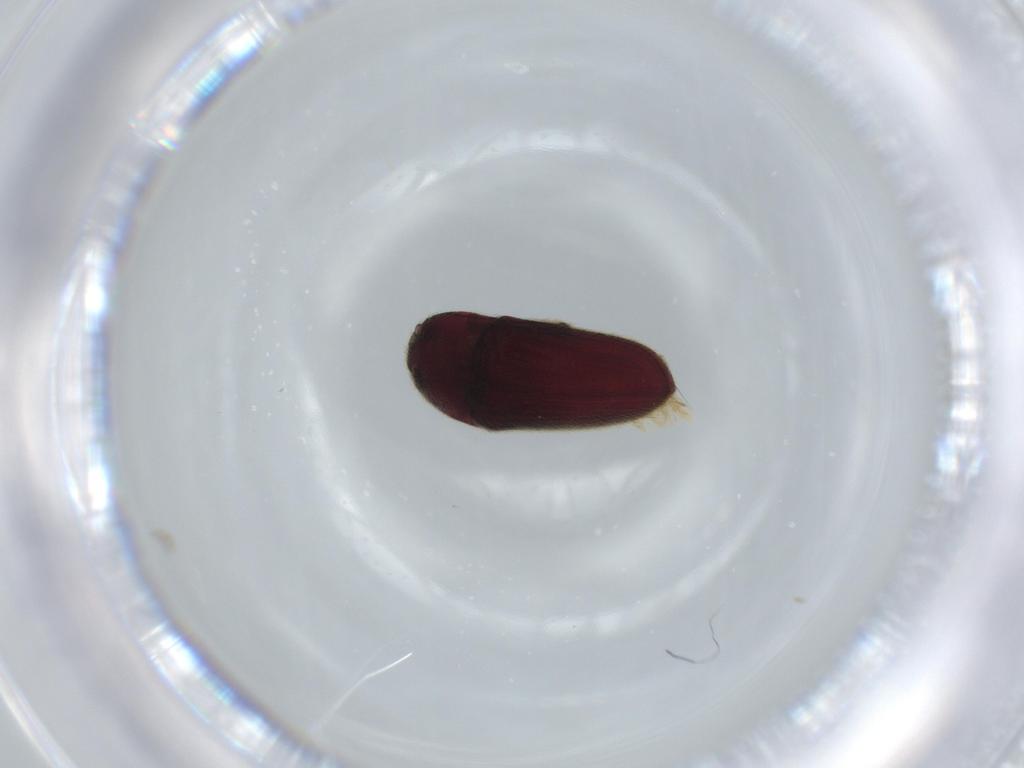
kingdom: Animalia
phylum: Arthropoda
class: Insecta
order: Coleoptera
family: Throscidae
